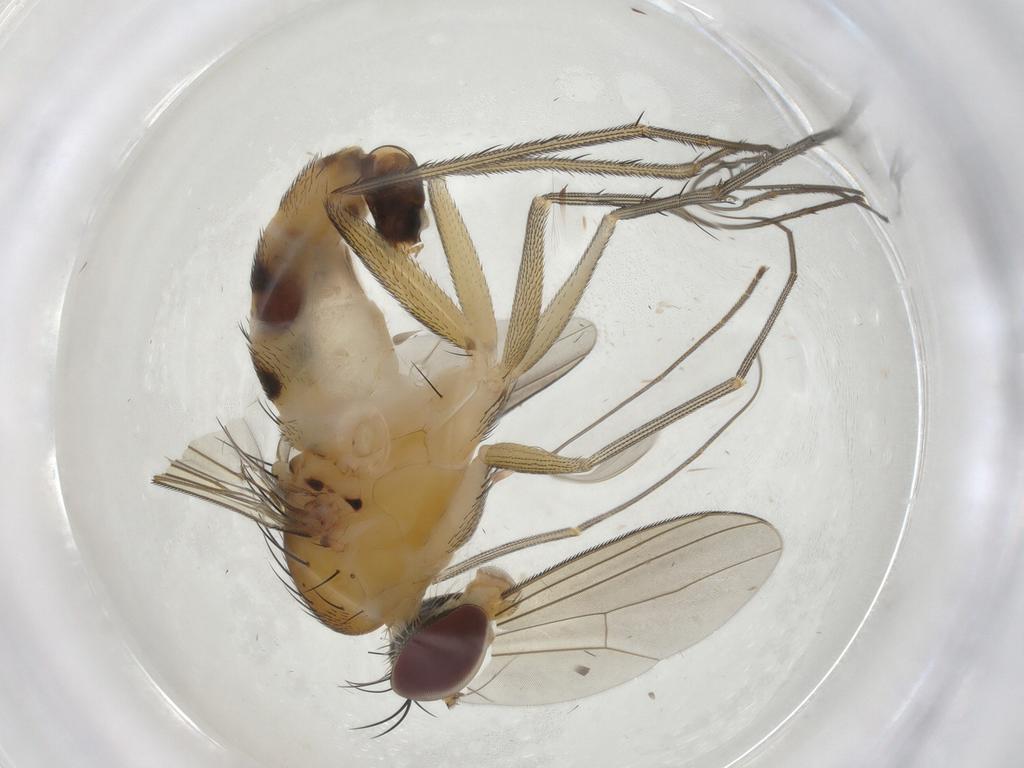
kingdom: Animalia
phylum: Arthropoda
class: Insecta
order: Diptera
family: Dolichopodidae
